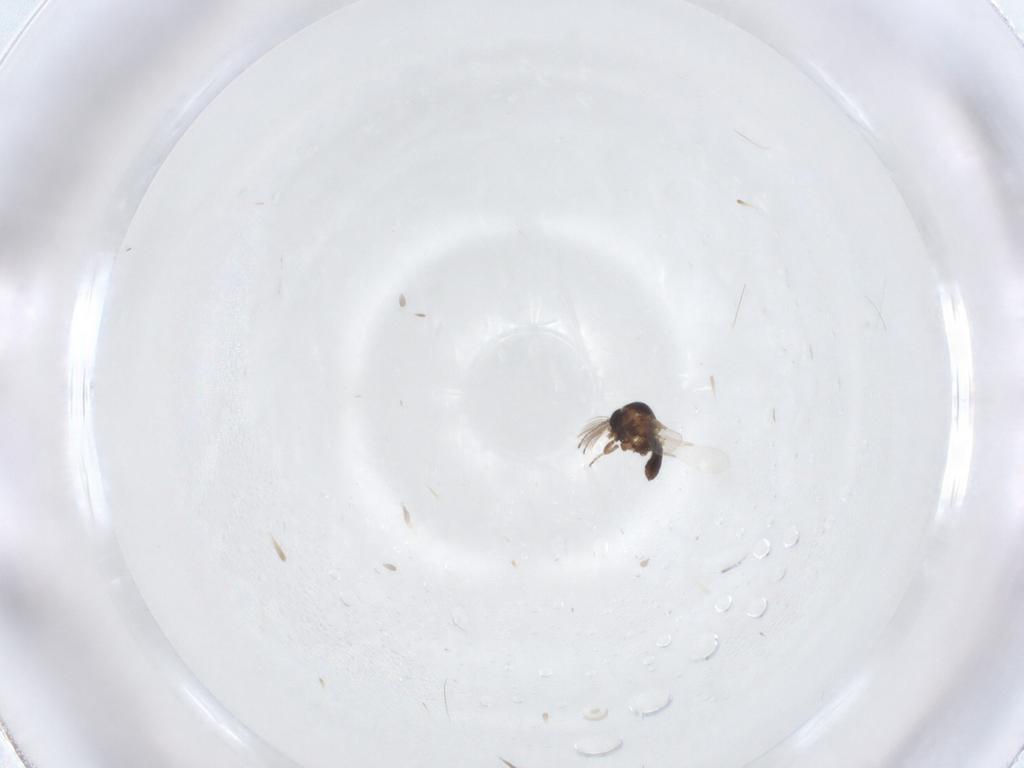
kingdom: Animalia
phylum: Arthropoda
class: Insecta
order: Diptera
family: Ceratopogonidae
